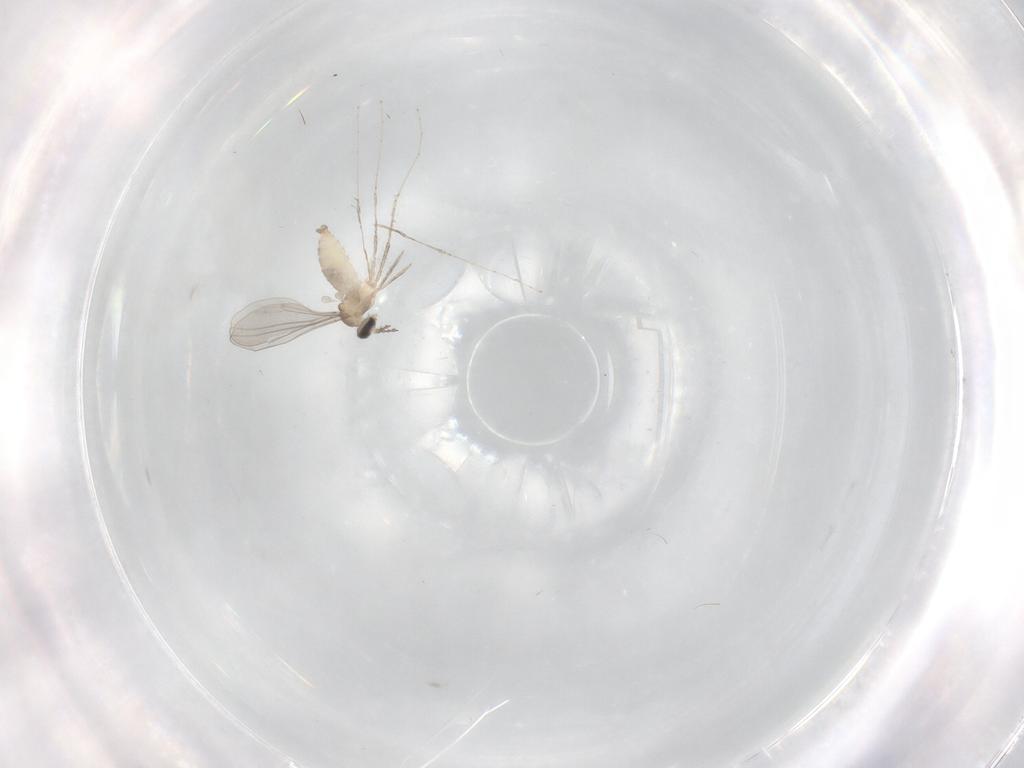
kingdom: Animalia
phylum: Arthropoda
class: Insecta
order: Diptera
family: Cecidomyiidae
